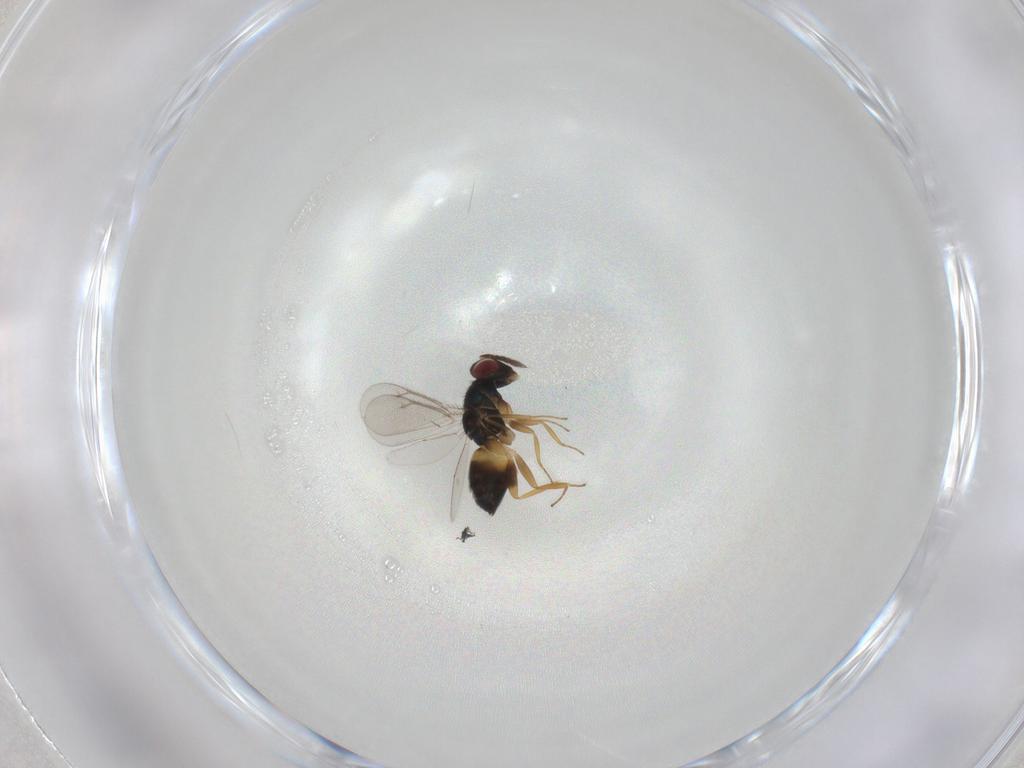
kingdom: Animalia
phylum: Arthropoda
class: Insecta
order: Hymenoptera
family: Eulophidae
